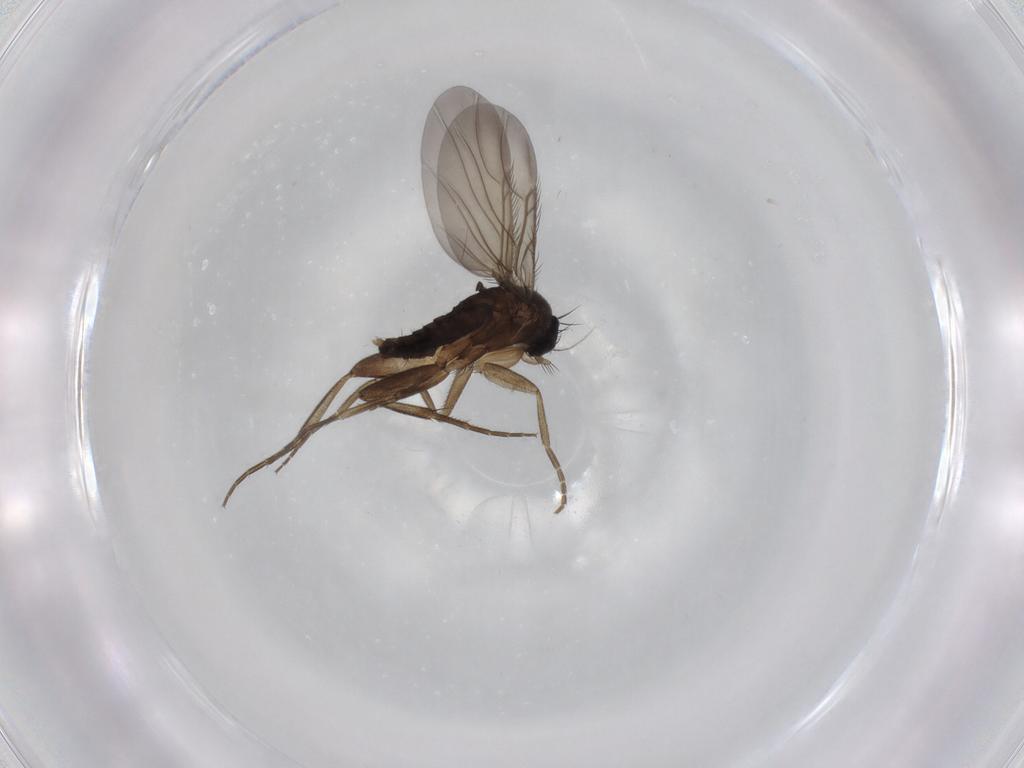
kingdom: Animalia
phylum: Arthropoda
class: Insecta
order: Diptera
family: Phoridae
